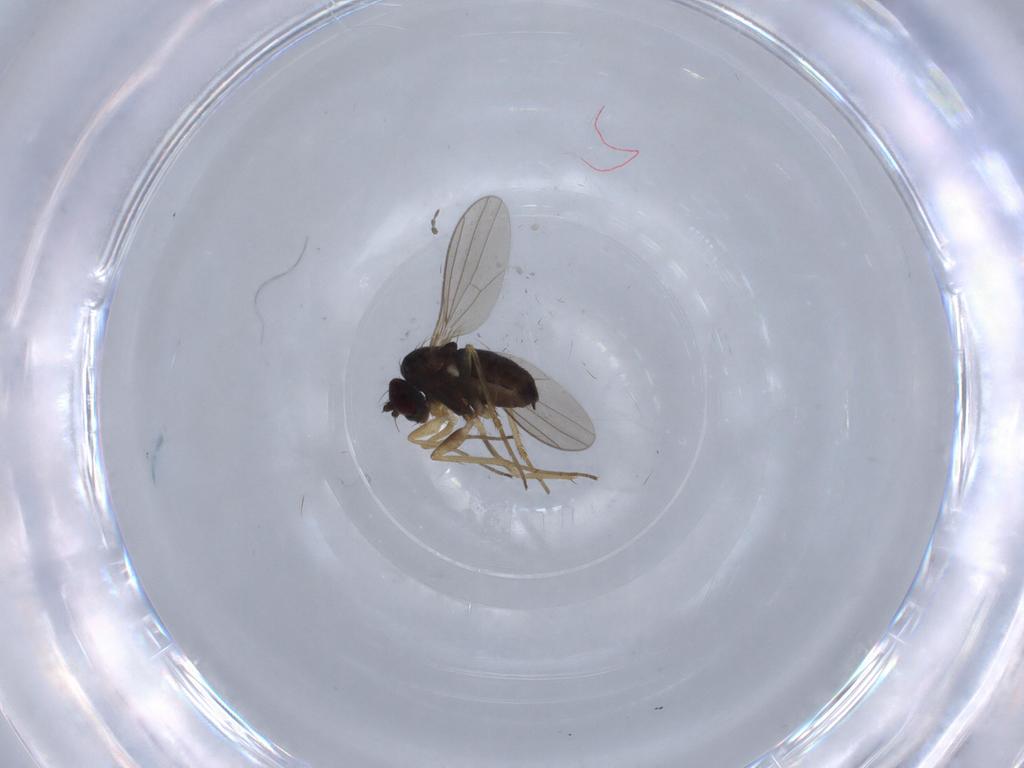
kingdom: Animalia
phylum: Arthropoda
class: Insecta
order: Diptera
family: Dolichopodidae
